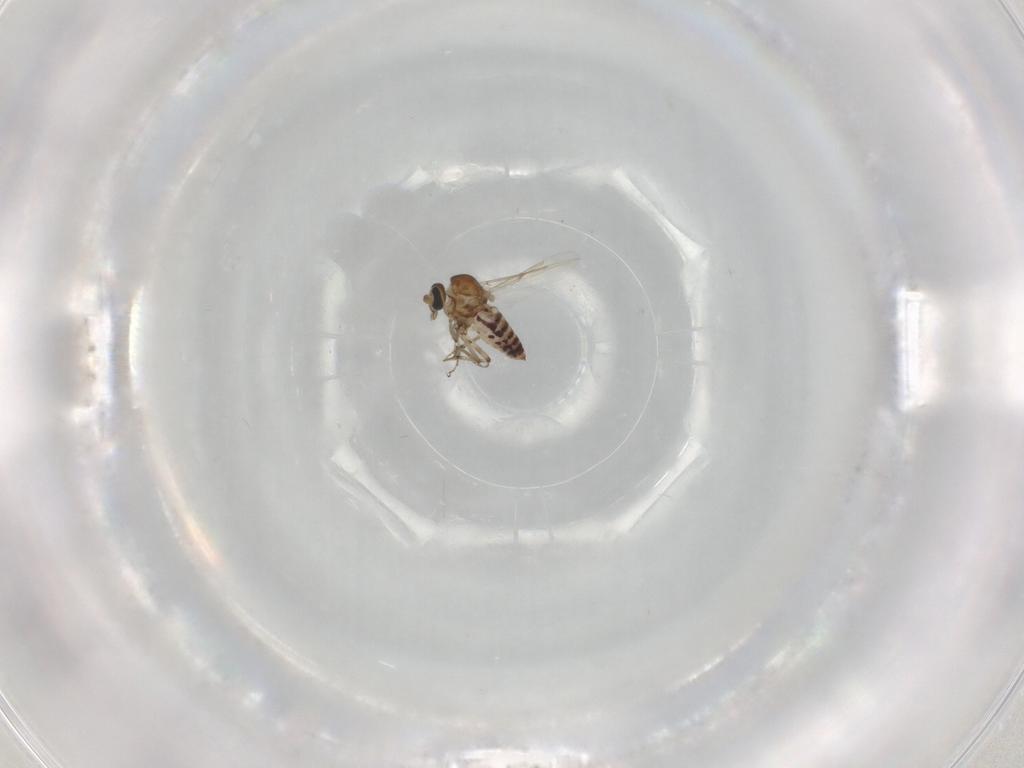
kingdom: Animalia
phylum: Arthropoda
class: Insecta
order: Diptera
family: Ceratopogonidae
